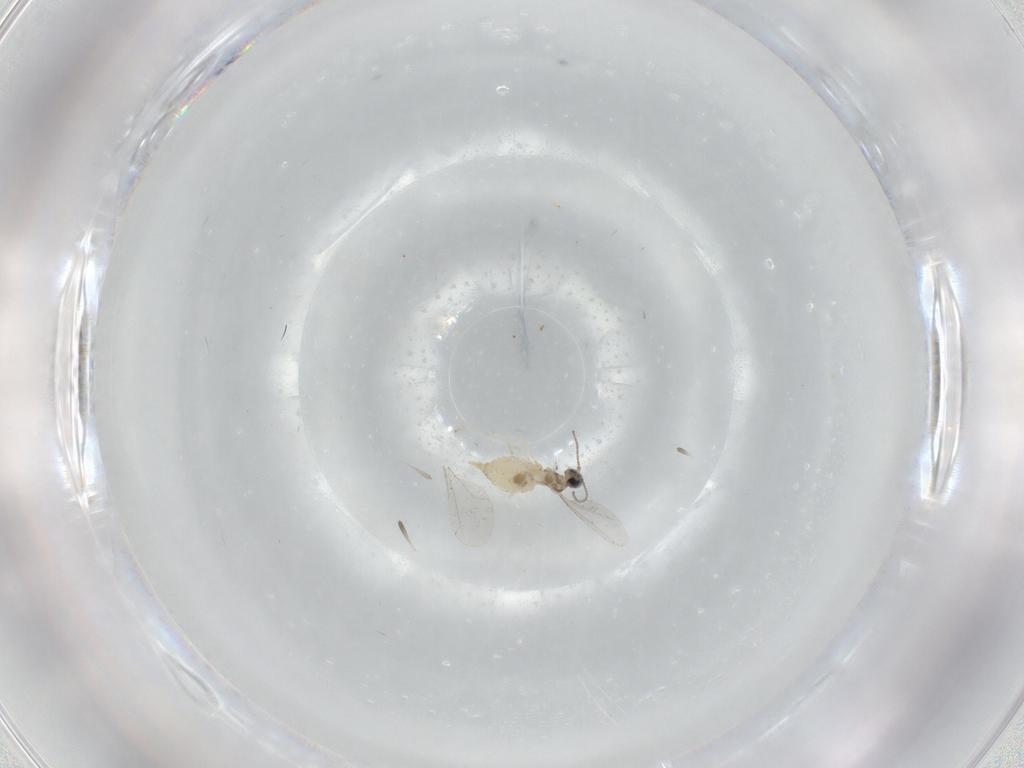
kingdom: Animalia
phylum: Arthropoda
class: Insecta
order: Diptera
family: Cecidomyiidae
